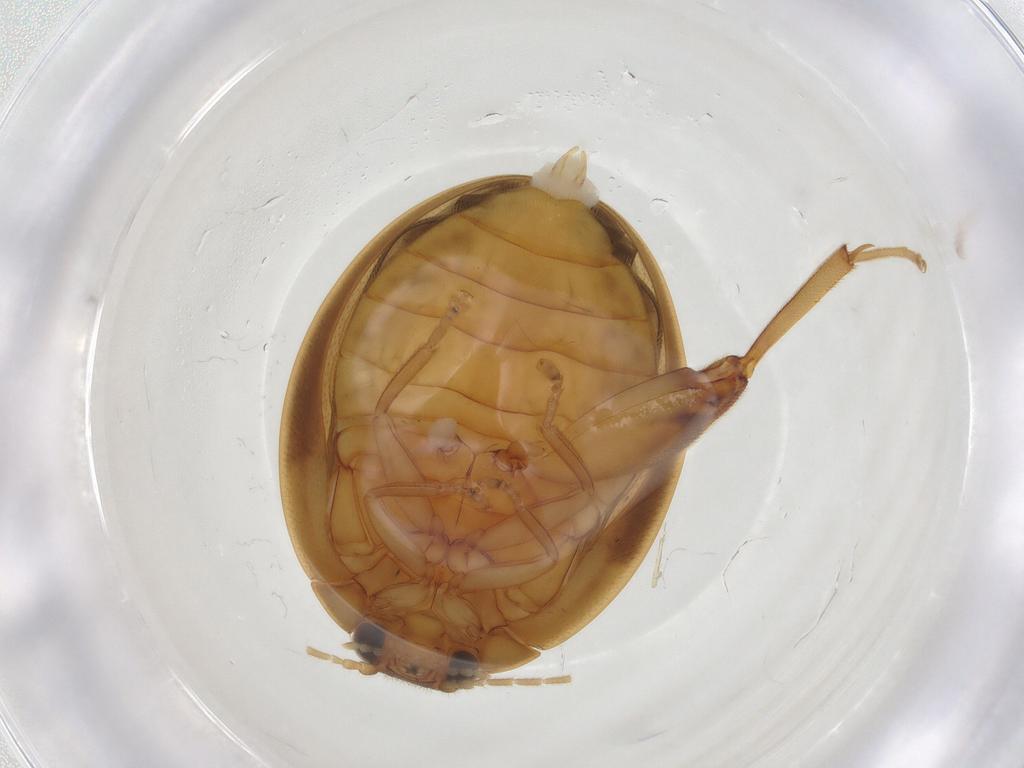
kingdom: Animalia
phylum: Arthropoda
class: Insecta
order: Coleoptera
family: Scirtidae
